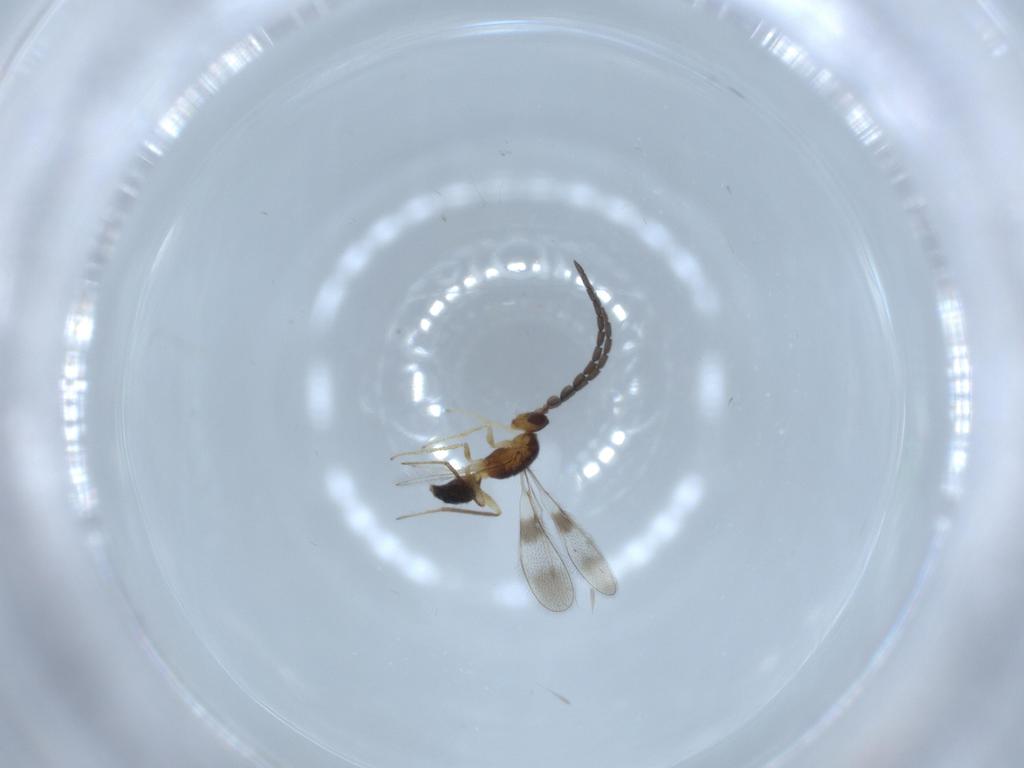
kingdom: Animalia
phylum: Arthropoda
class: Insecta
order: Hymenoptera
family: Mymaridae
